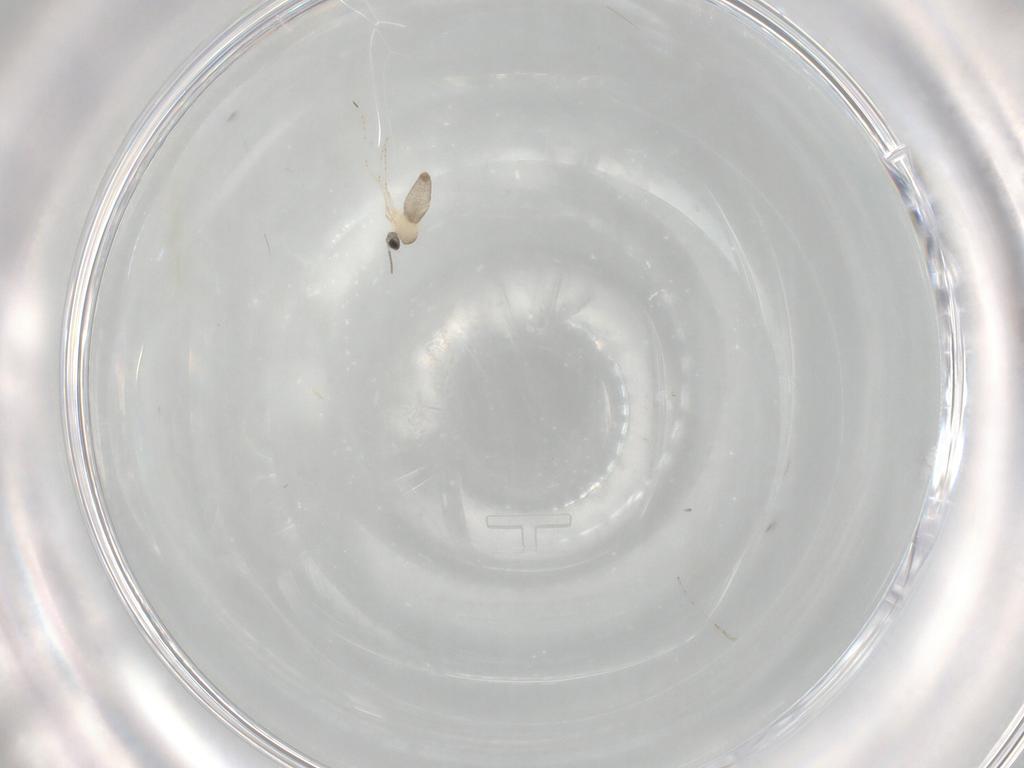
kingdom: Animalia
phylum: Arthropoda
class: Insecta
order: Diptera
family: Cecidomyiidae
